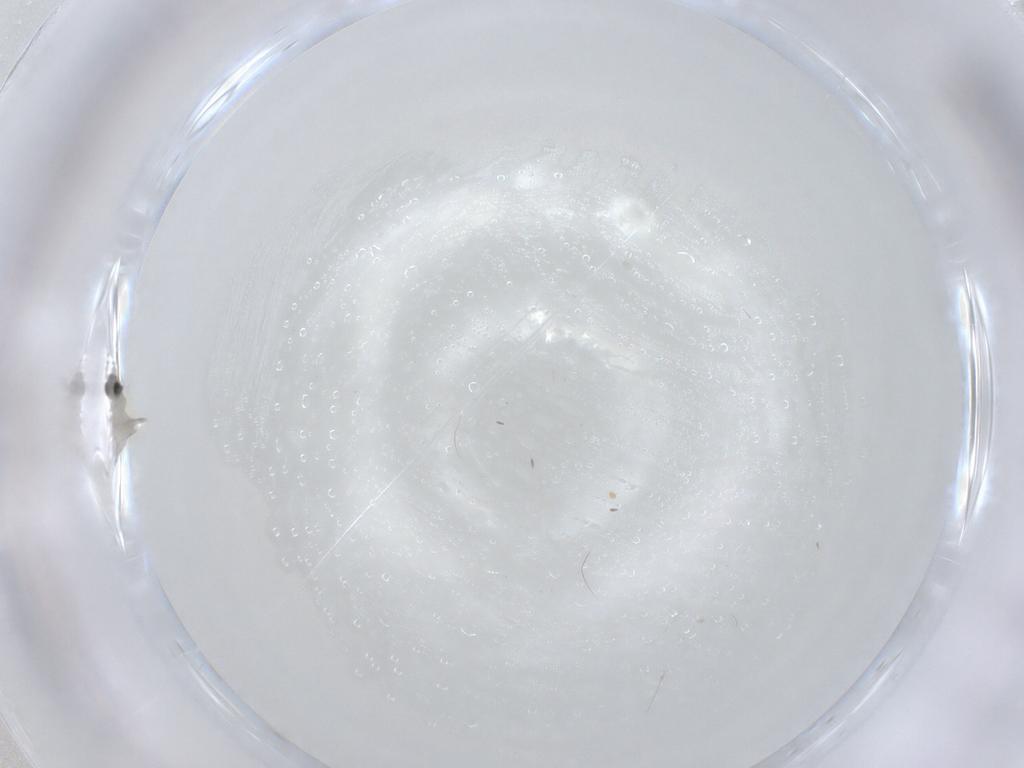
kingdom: Animalia
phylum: Arthropoda
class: Insecta
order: Diptera
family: Cecidomyiidae
